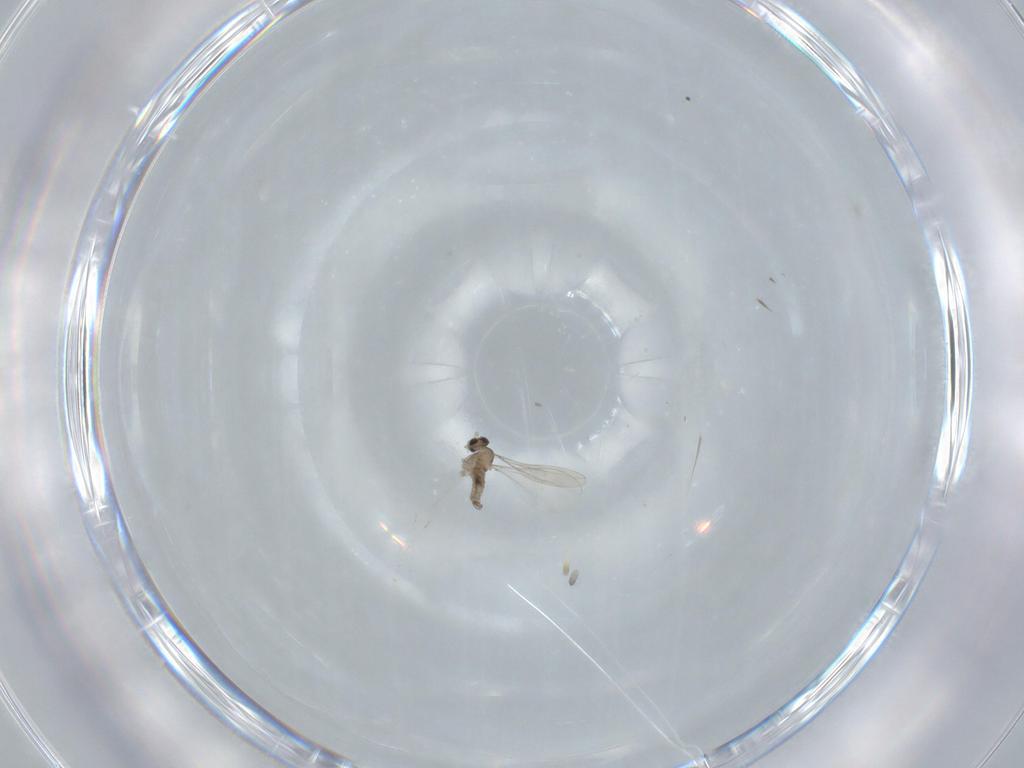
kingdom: Animalia
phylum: Arthropoda
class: Insecta
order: Diptera
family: Cecidomyiidae
